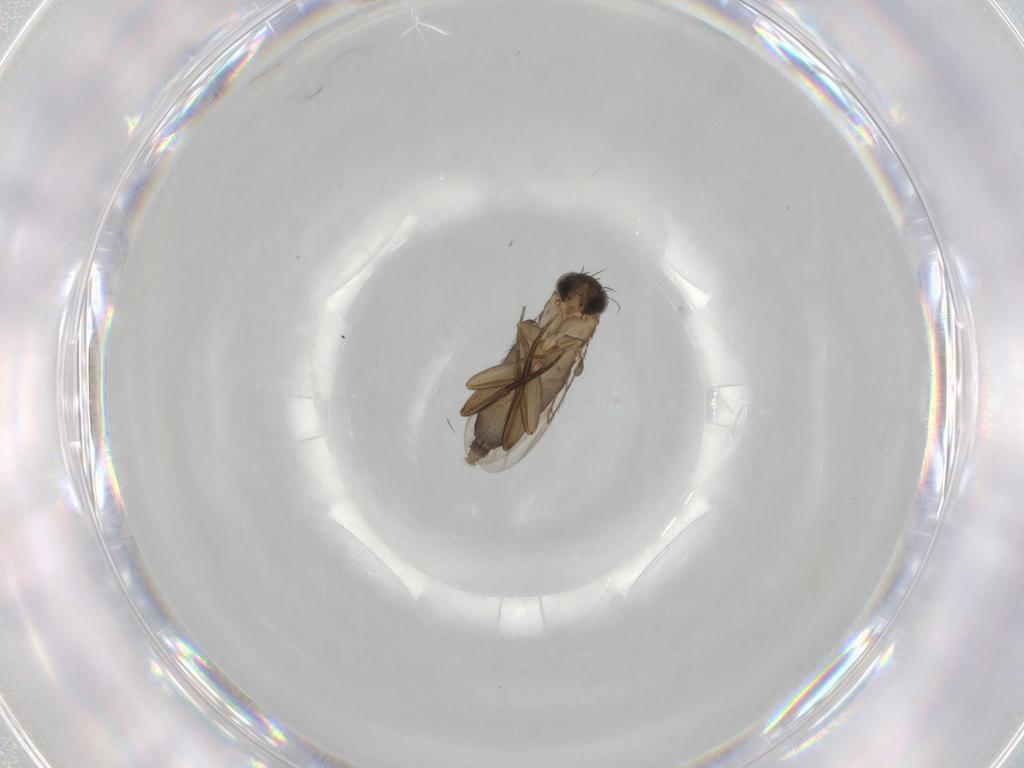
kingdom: Animalia
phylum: Arthropoda
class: Insecta
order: Diptera
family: Phoridae
